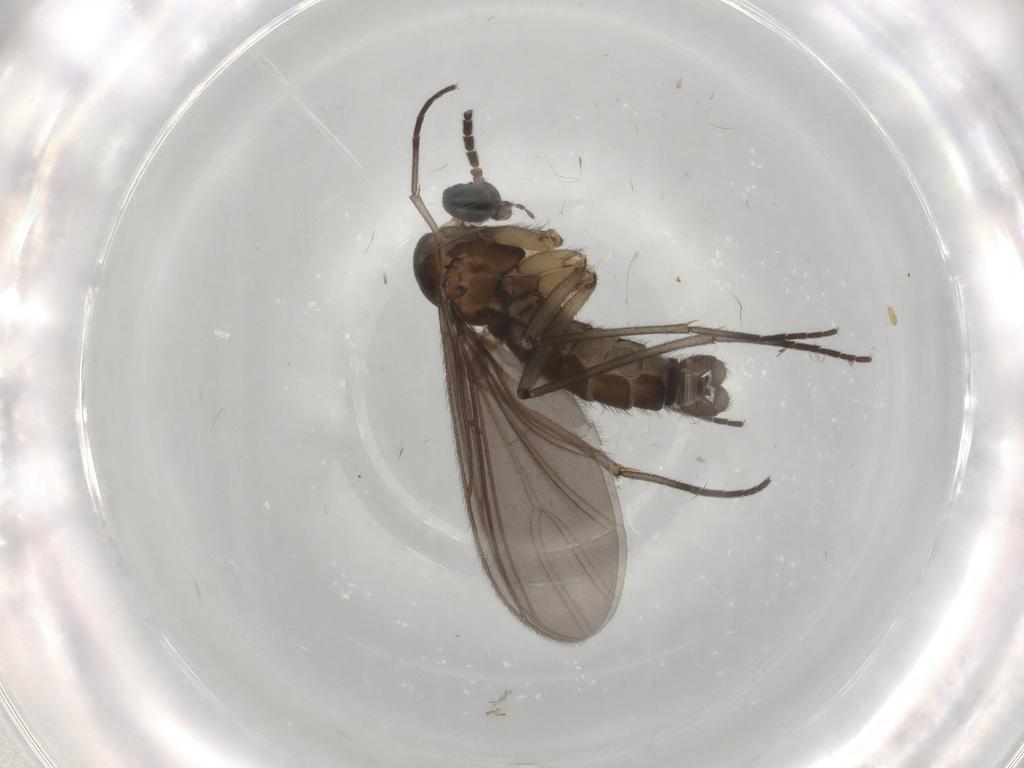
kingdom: Animalia
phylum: Arthropoda
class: Insecta
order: Diptera
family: Sciaridae
